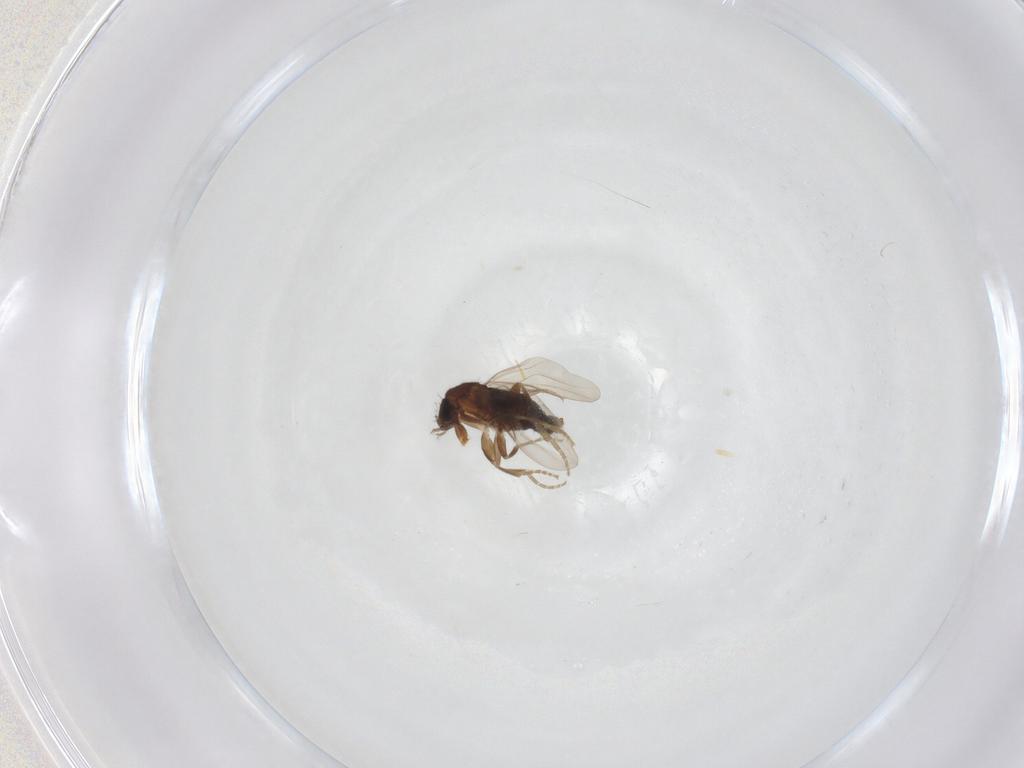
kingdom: Animalia
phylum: Arthropoda
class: Insecta
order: Diptera
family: Phoridae
